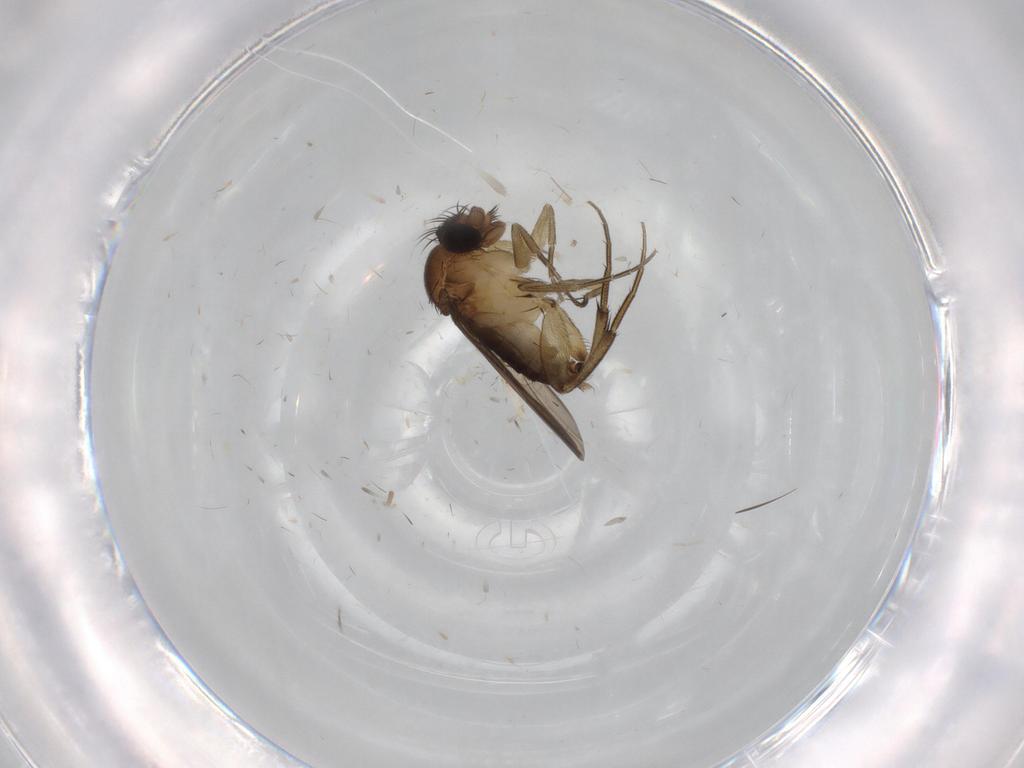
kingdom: Animalia
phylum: Arthropoda
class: Insecta
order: Diptera
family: Phoridae
